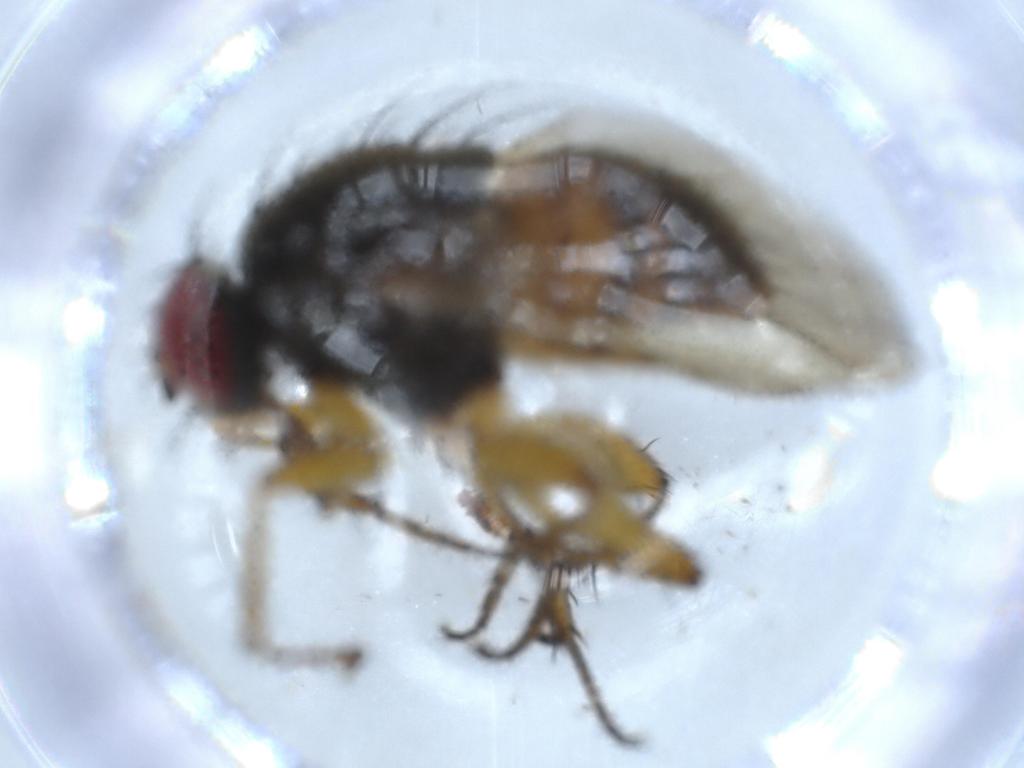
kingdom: Animalia
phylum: Arthropoda
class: Insecta
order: Diptera
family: Muscidae
